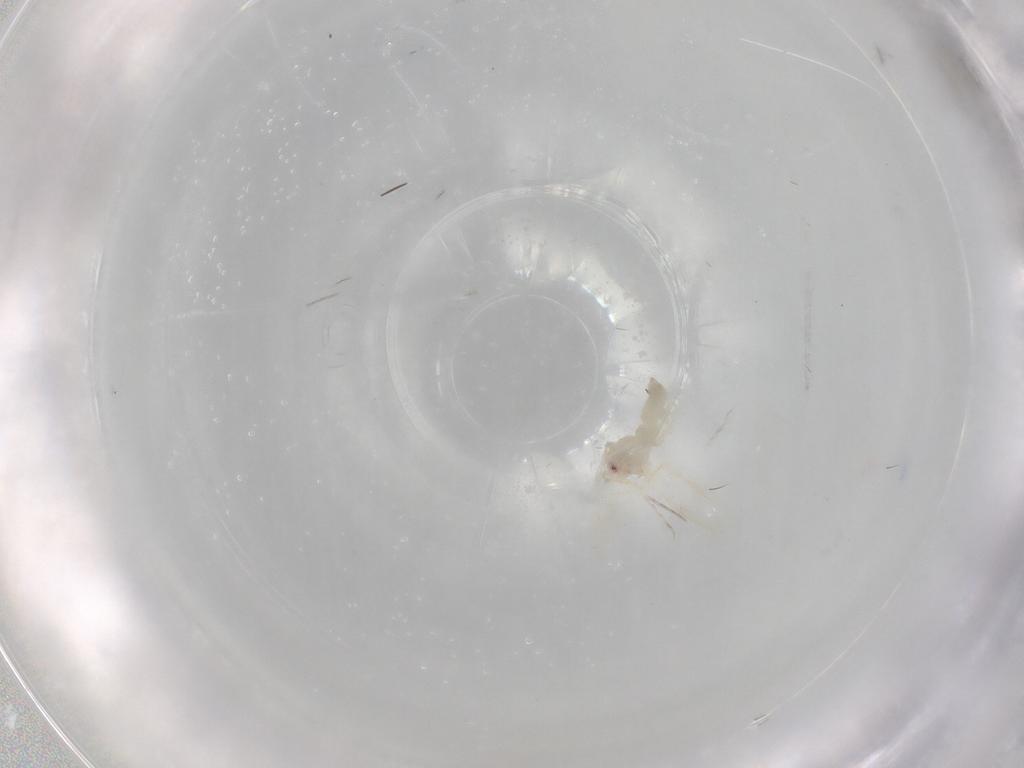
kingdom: Animalia
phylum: Arthropoda
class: Insecta
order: Hemiptera
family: Aleyrodidae
